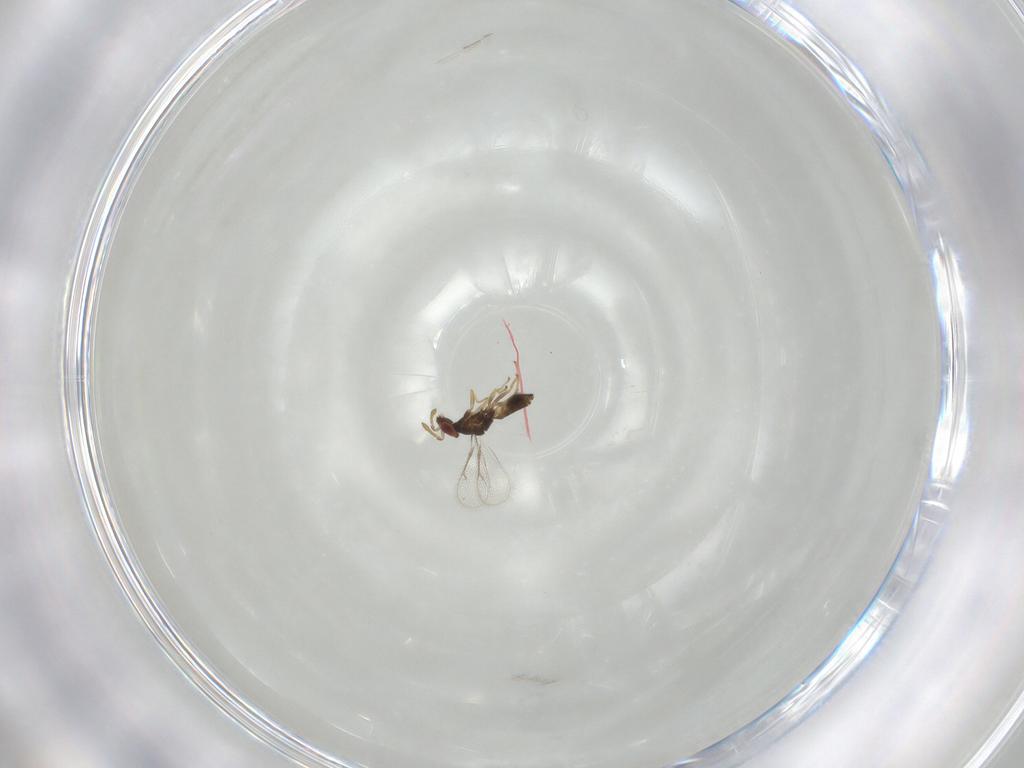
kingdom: Animalia
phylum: Arthropoda
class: Insecta
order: Hymenoptera
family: Eulophidae
